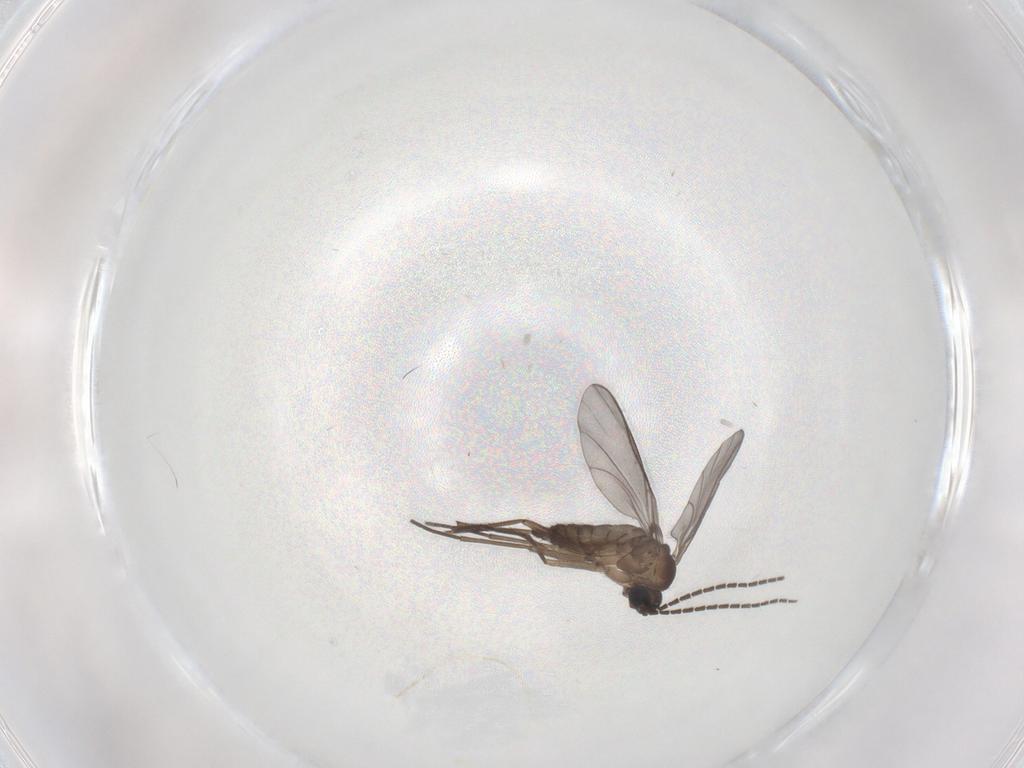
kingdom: Animalia
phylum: Arthropoda
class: Insecta
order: Diptera
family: Sciaridae
